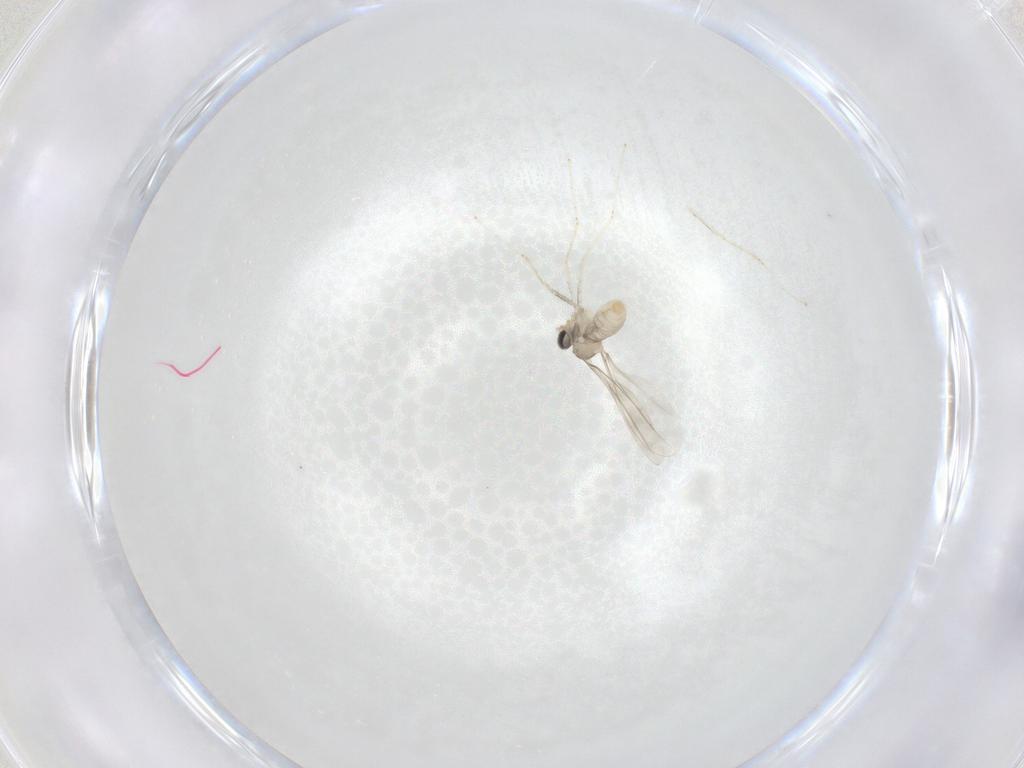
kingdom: Animalia
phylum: Arthropoda
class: Insecta
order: Diptera
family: Cecidomyiidae
